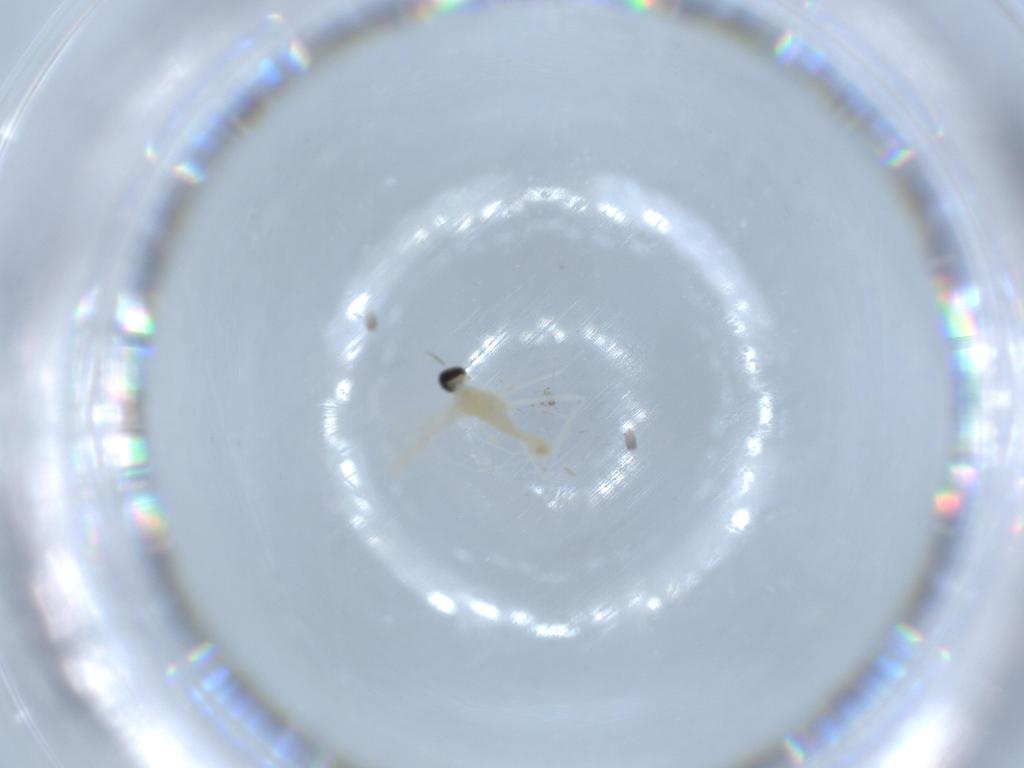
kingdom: Animalia
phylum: Arthropoda
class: Insecta
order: Diptera
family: Cecidomyiidae
